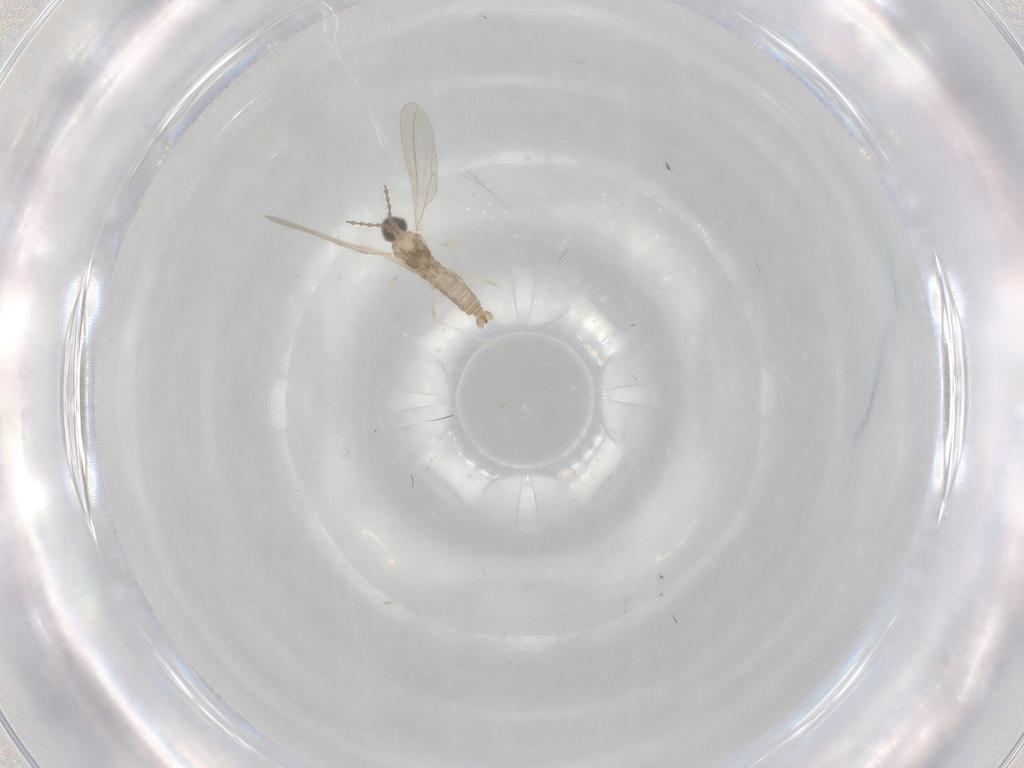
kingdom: Animalia
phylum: Arthropoda
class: Insecta
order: Diptera
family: Cecidomyiidae
